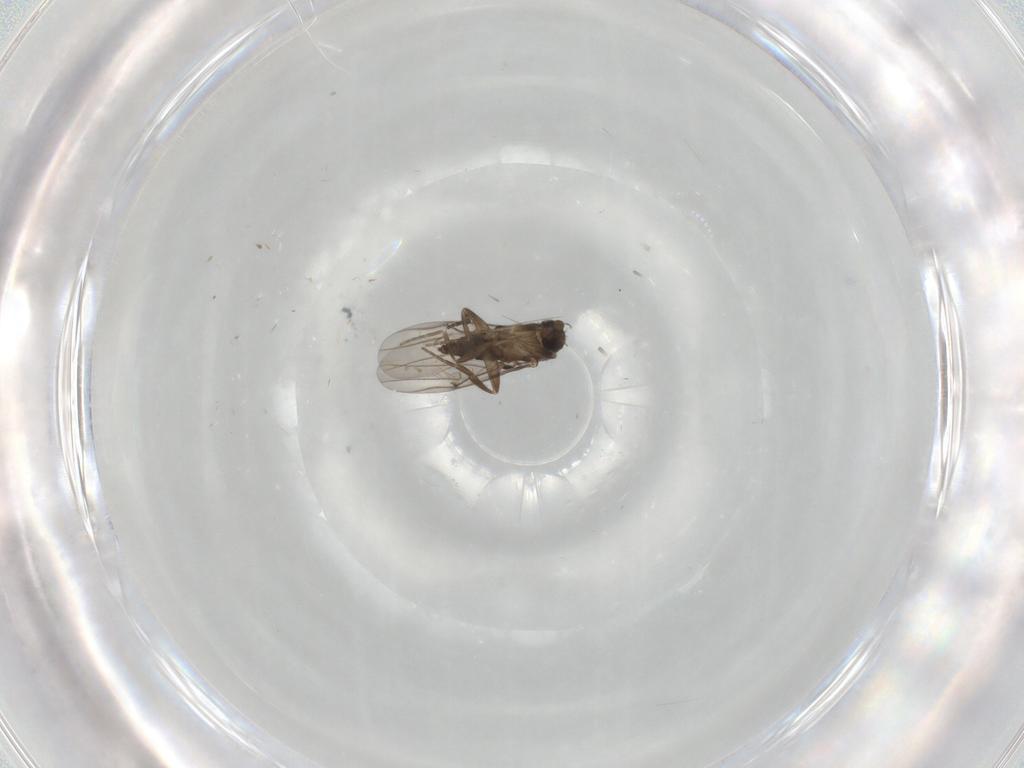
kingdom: Animalia
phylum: Arthropoda
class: Insecta
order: Diptera
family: Phoridae
